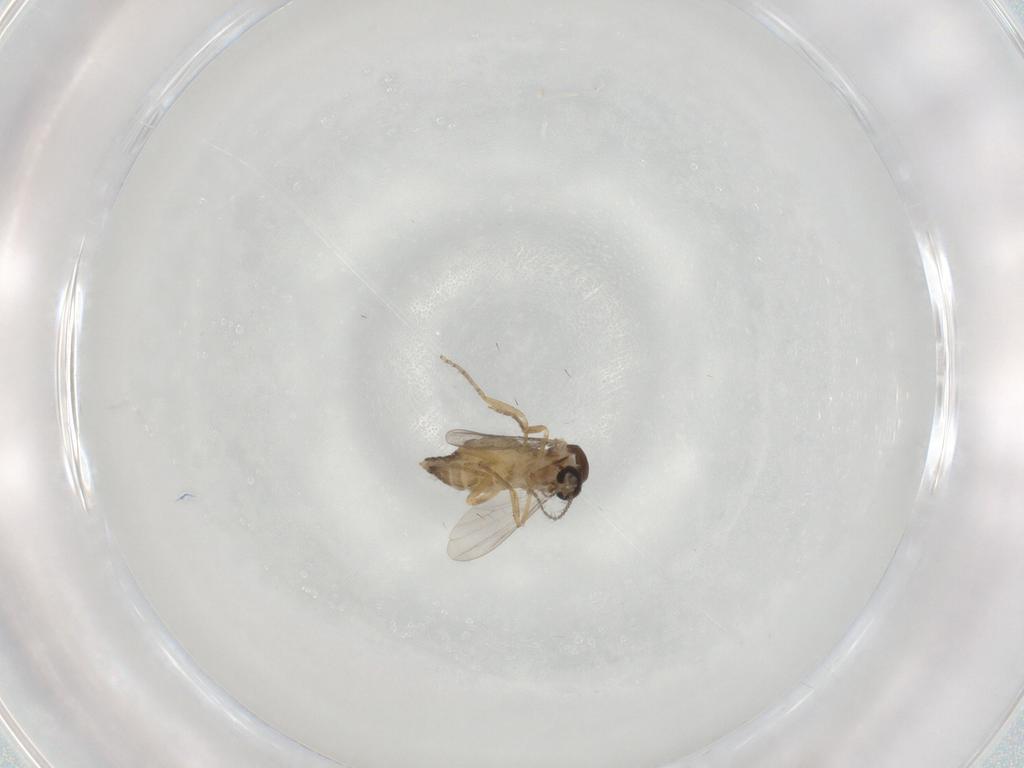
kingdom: Animalia
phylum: Arthropoda
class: Insecta
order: Diptera
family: Ceratopogonidae
